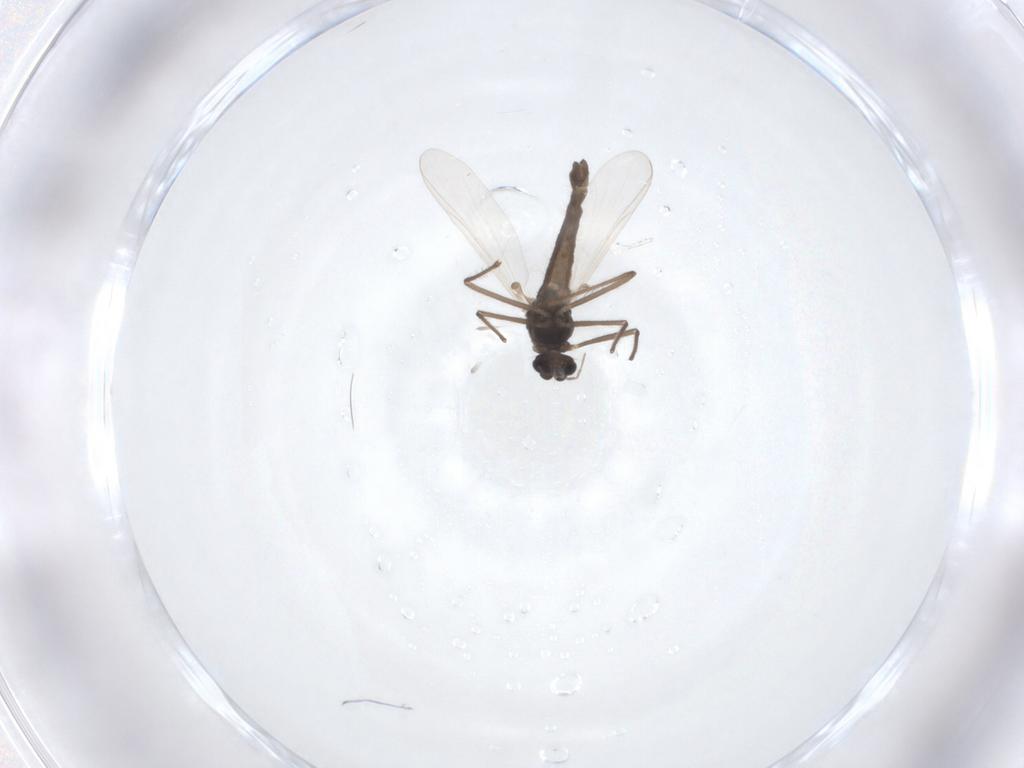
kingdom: Animalia
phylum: Arthropoda
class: Insecta
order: Diptera
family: Chironomidae
